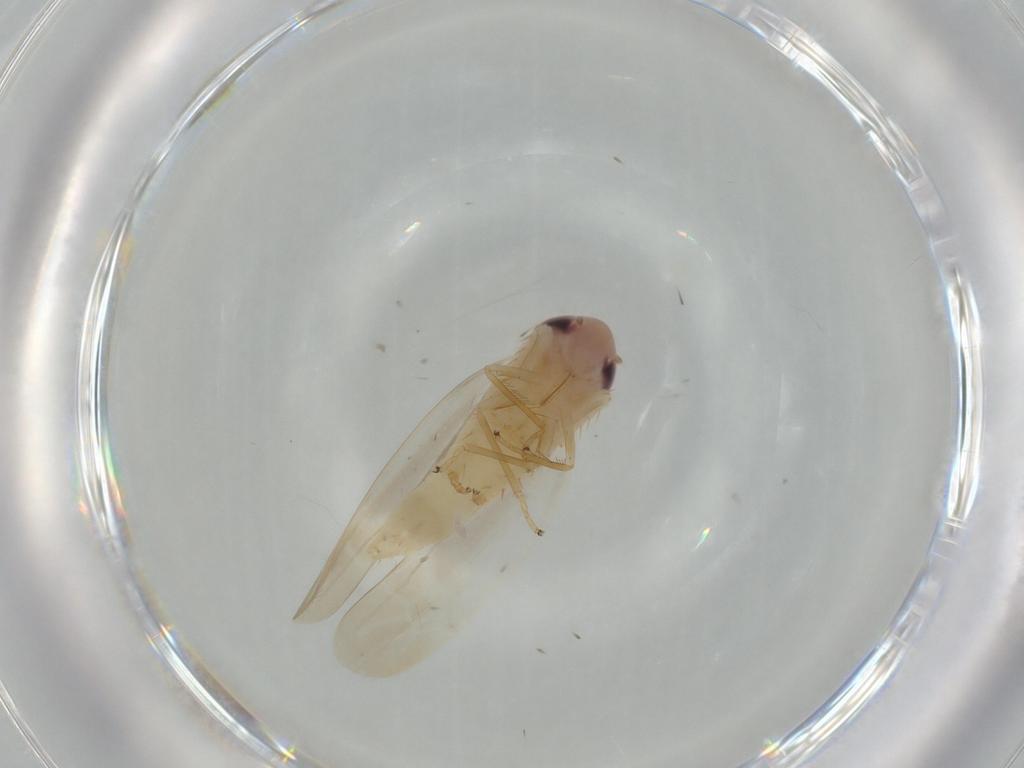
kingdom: Animalia
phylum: Arthropoda
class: Insecta
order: Hemiptera
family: Cicadellidae
